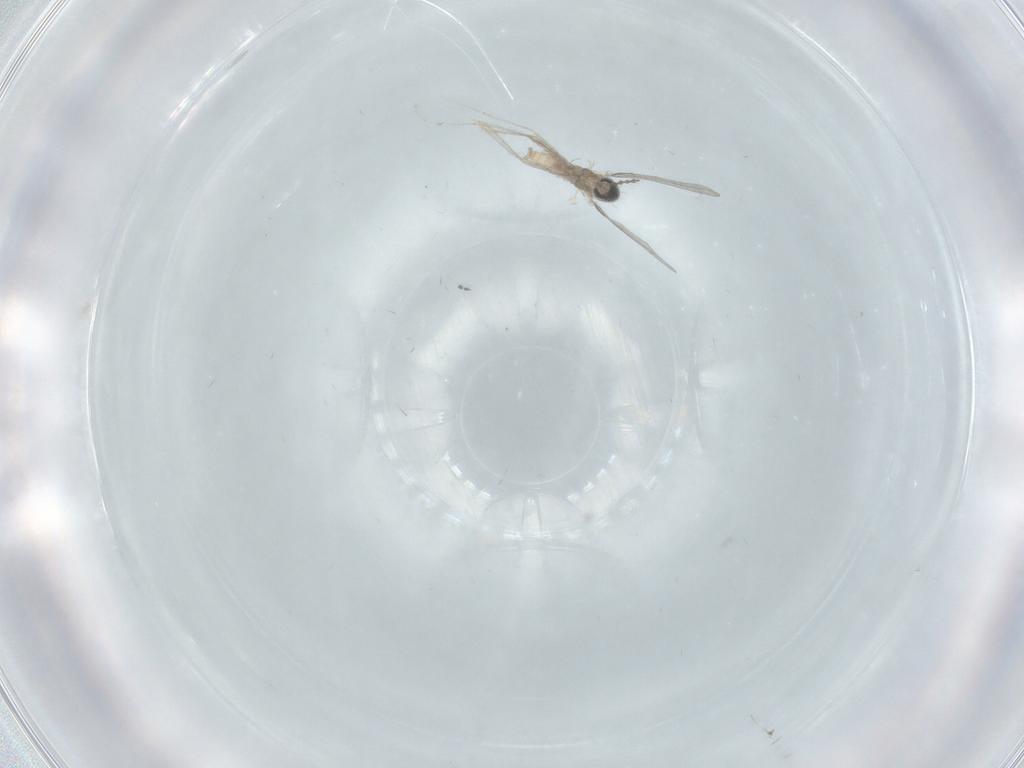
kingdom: Animalia
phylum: Arthropoda
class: Insecta
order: Diptera
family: Cecidomyiidae
